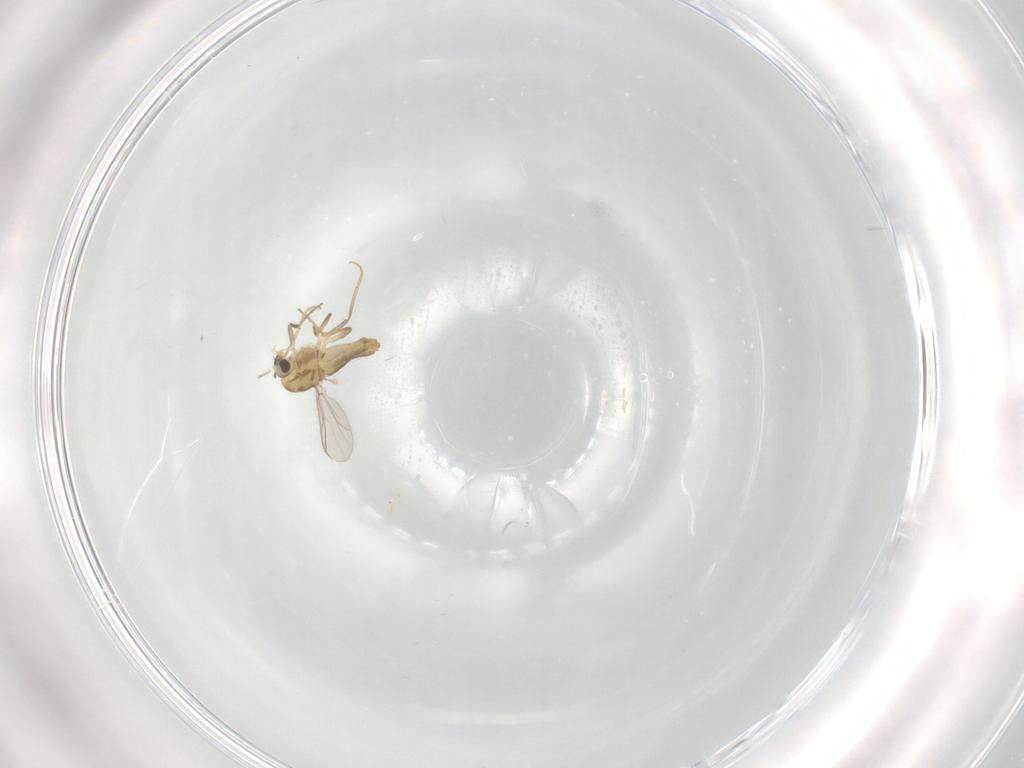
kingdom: Animalia
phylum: Arthropoda
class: Insecta
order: Diptera
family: Chironomidae
